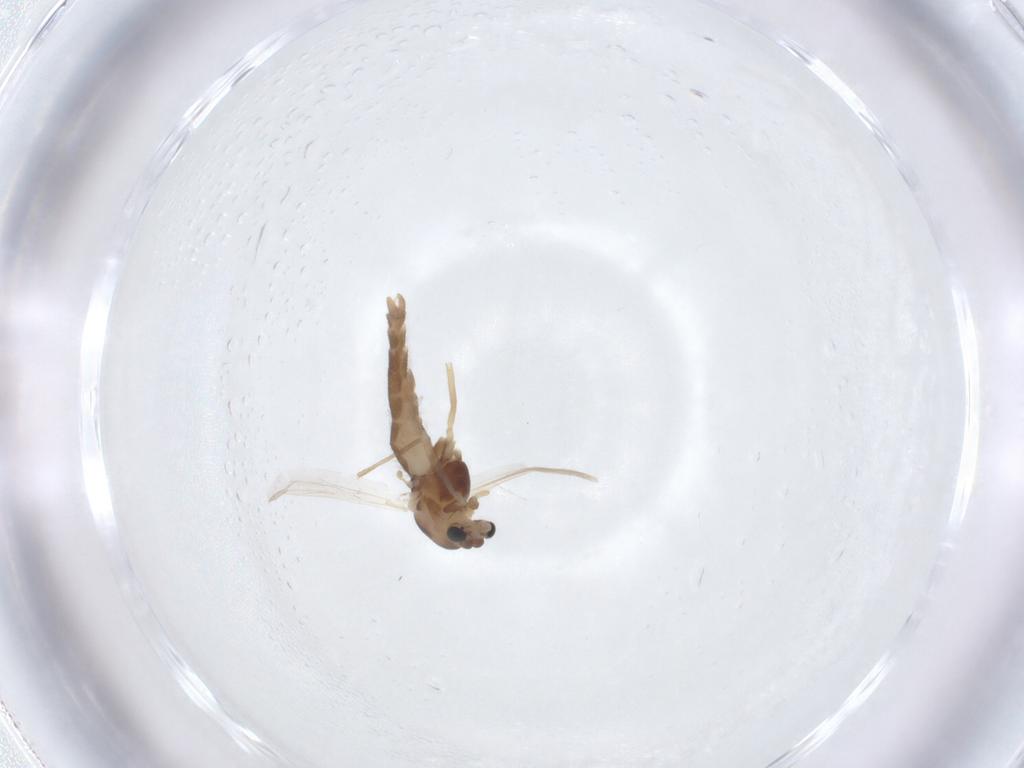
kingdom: Animalia
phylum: Arthropoda
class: Insecta
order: Diptera
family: Chironomidae
